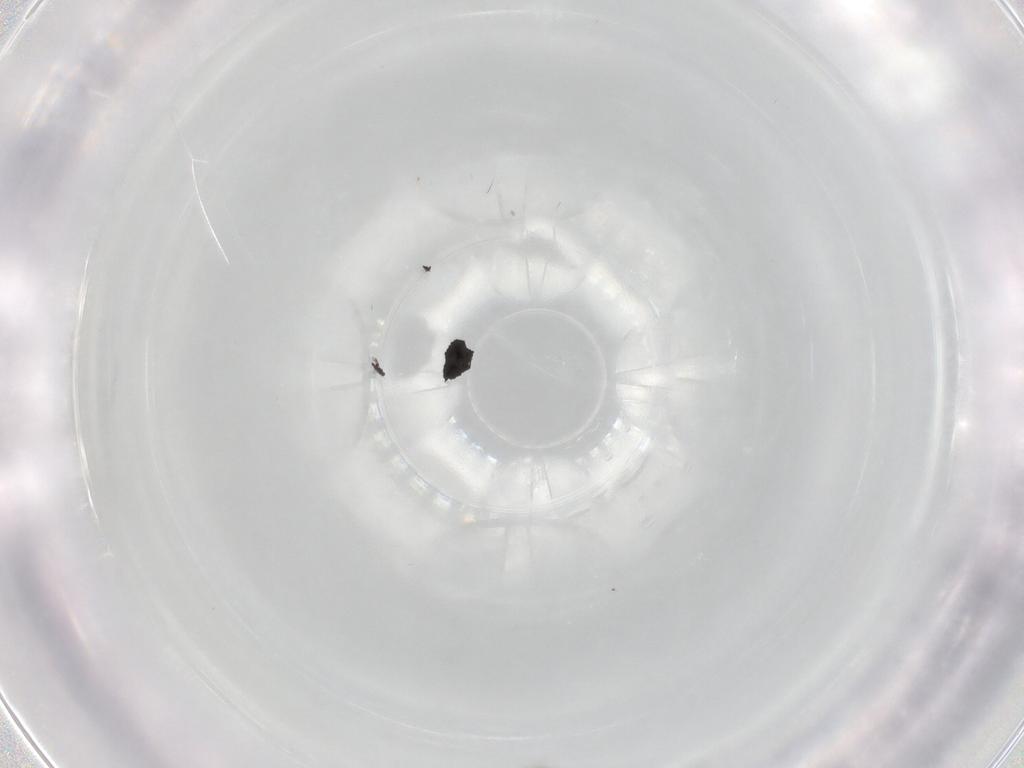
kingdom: Animalia
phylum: Arthropoda
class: Insecta
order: Diptera
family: Cecidomyiidae
